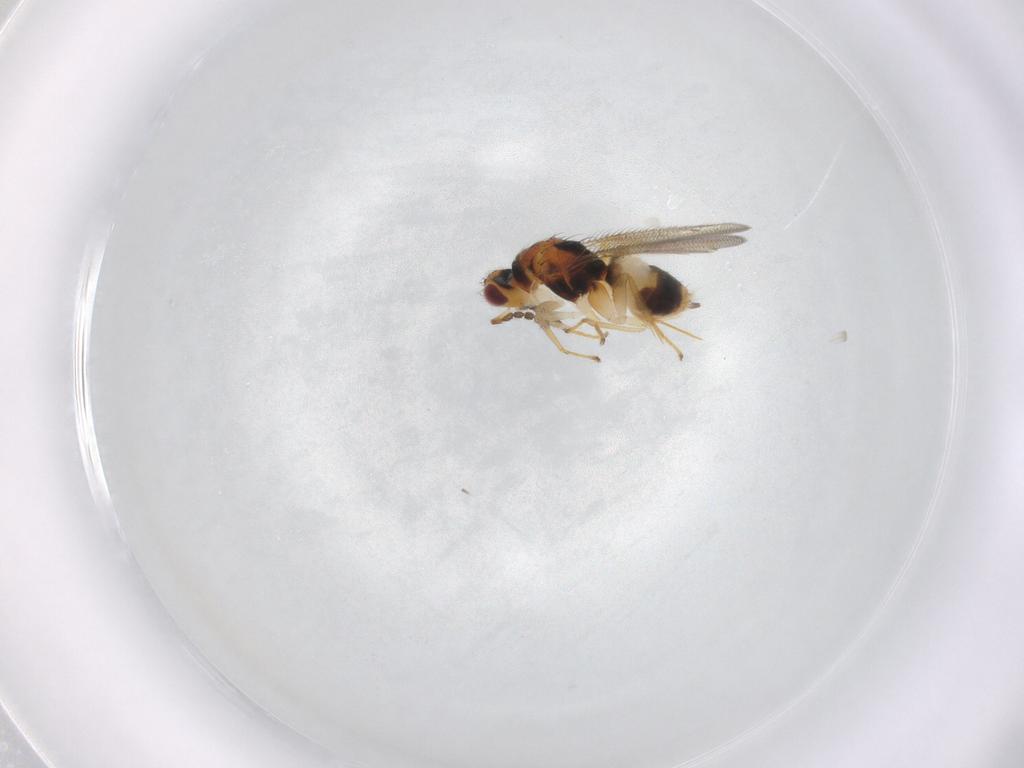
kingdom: Animalia
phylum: Arthropoda
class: Insecta
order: Hymenoptera
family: Eulophidae
